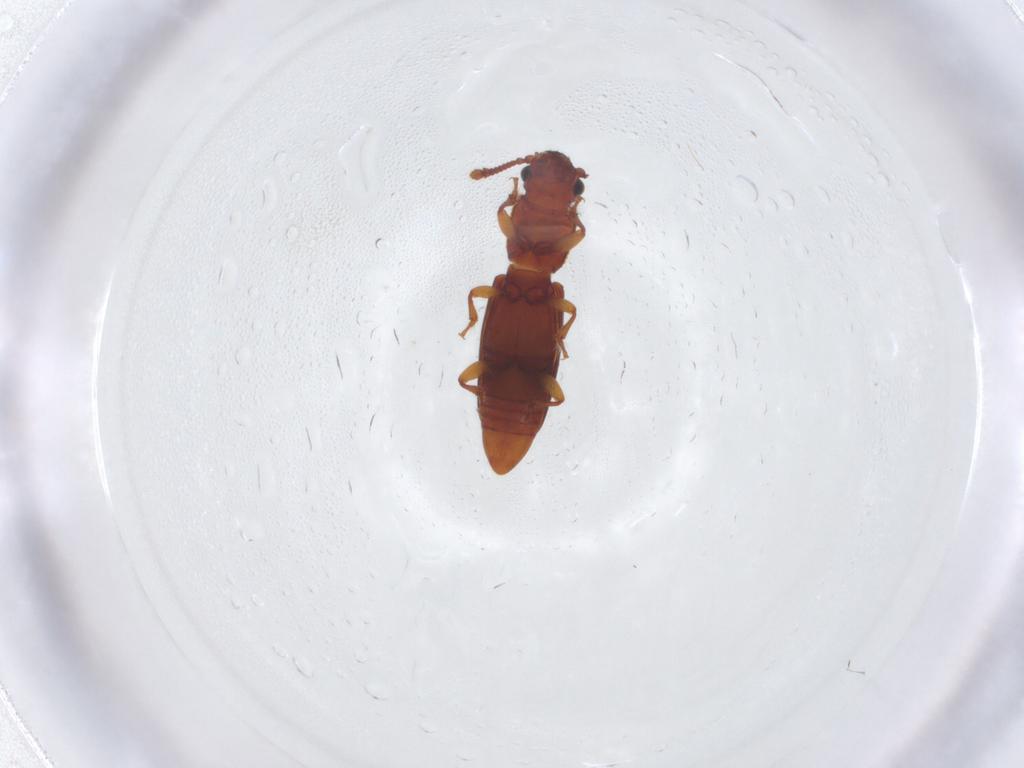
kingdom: Animalia
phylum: Arthropoda
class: Insecta
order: Coleoptera
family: Monotomidae
